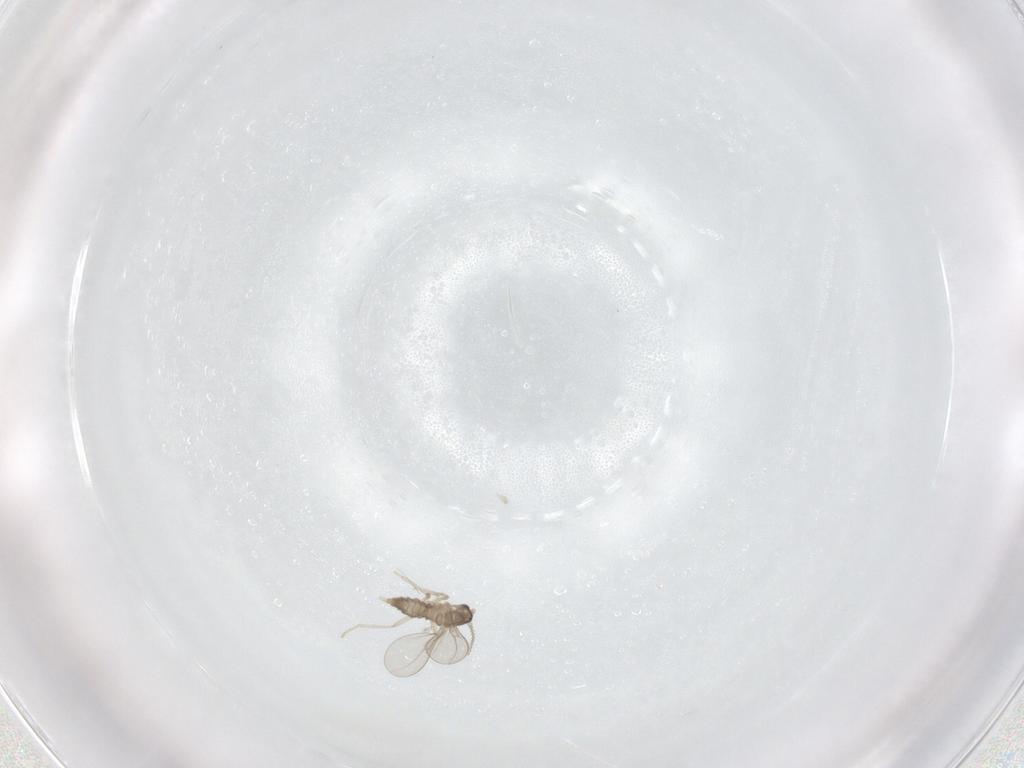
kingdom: Animalia
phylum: Arthropoda
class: Insecta
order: Diptera
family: Cecidomyiidae
